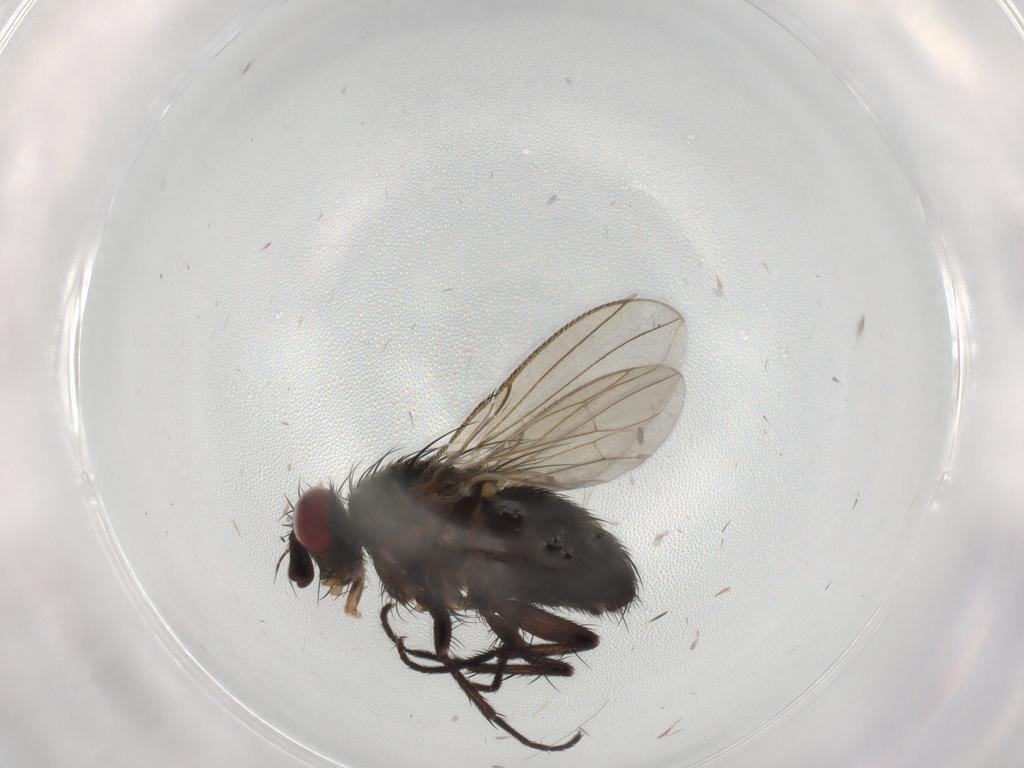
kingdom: Animalia
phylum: Arthropoda
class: Insecta
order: Diptera
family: Tachinidae
